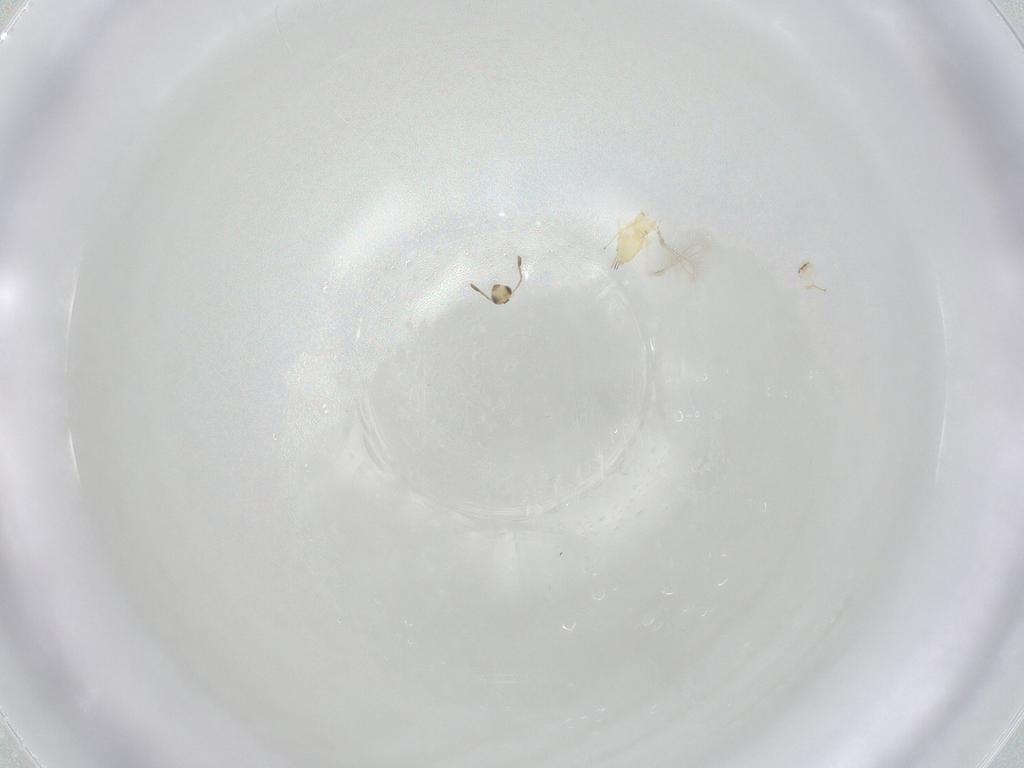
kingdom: Animalia
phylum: Arthropoda
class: Insecta
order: Hymenoptera
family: Mymaridae
